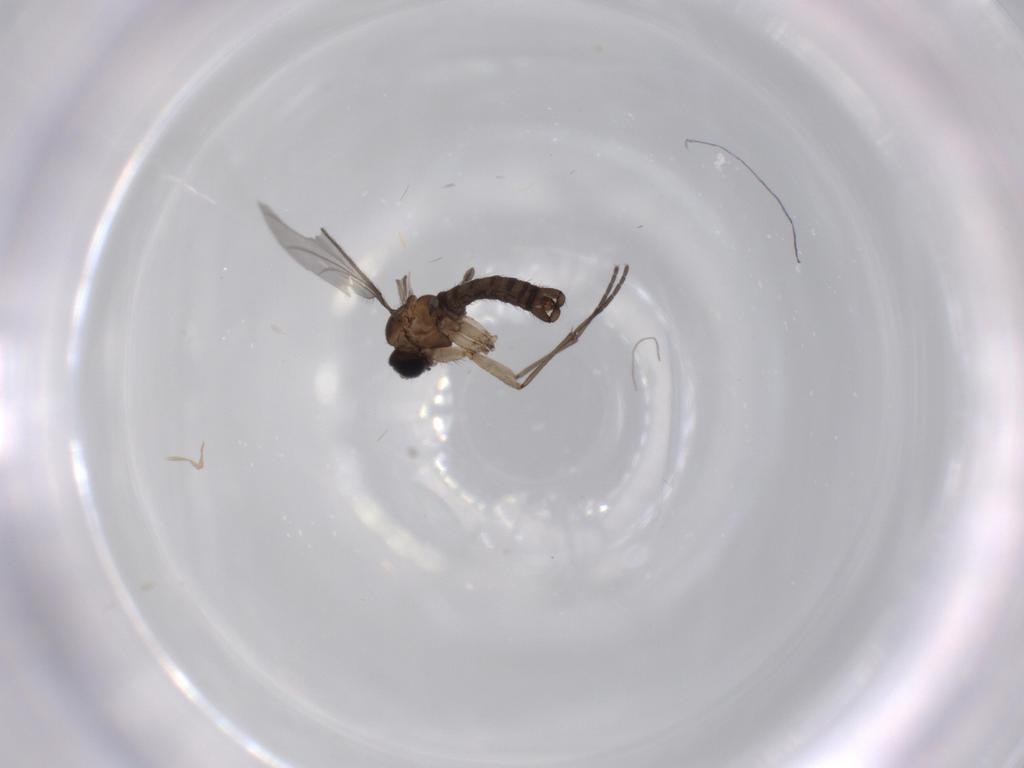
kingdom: Animalia
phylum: Arthropoda
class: Insecta
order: Diptera
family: Sciaridae
